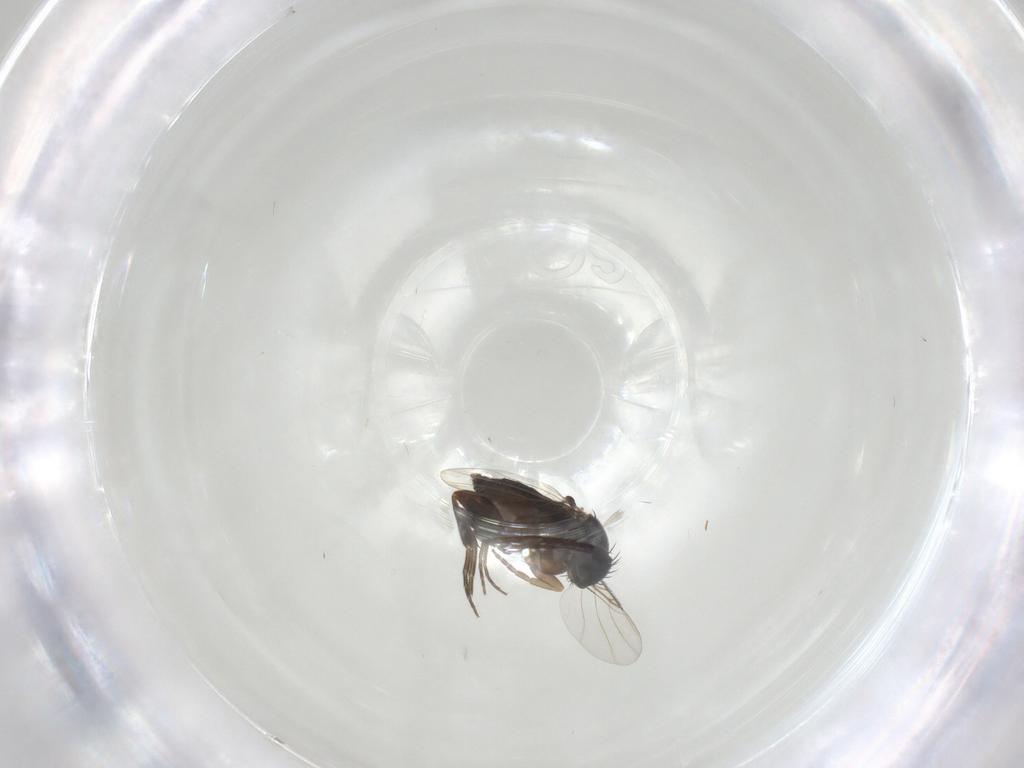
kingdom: Animalia
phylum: Arthropoda
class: Insecta
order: Diptera
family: Phoridae
